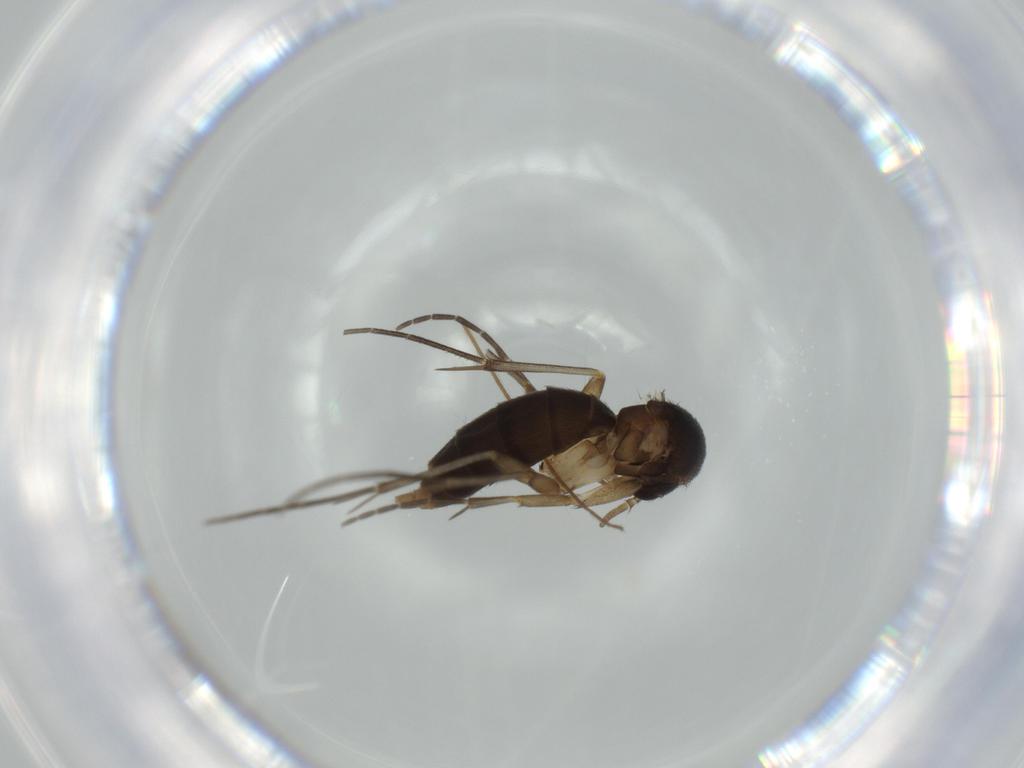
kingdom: Animalia
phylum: Arthropoda
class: Insecta
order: Diptera
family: Mycetophilidae
